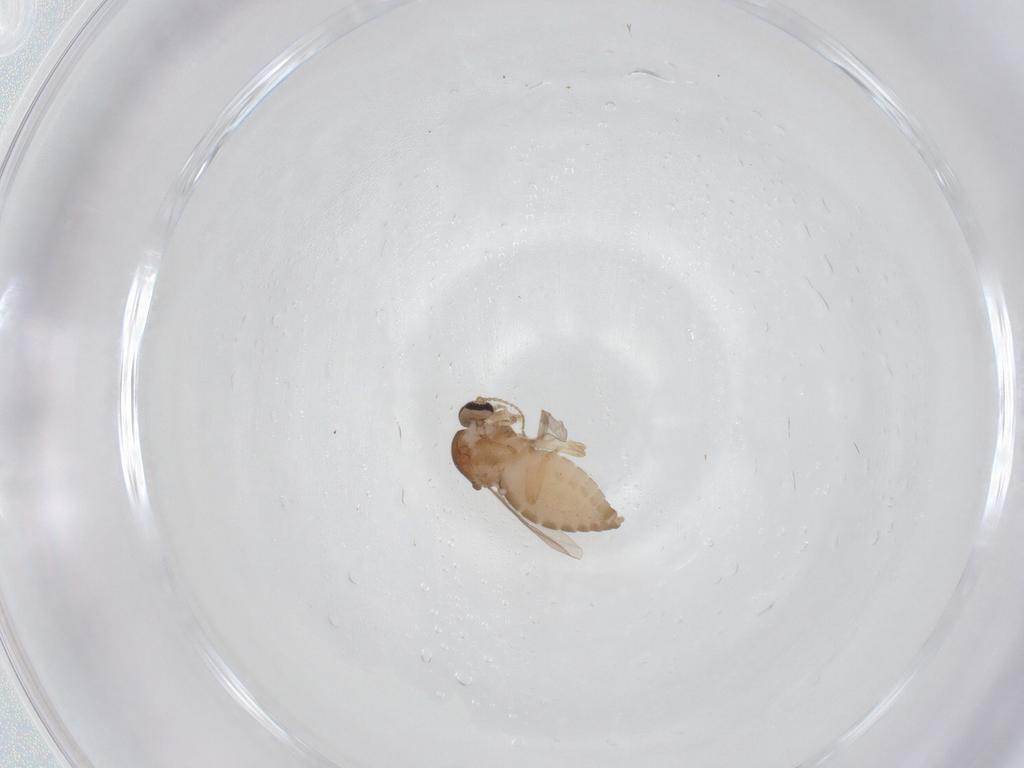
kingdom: Animalia
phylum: Arthropoda
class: Insecta
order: Diptera
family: Ceratopogonidae
